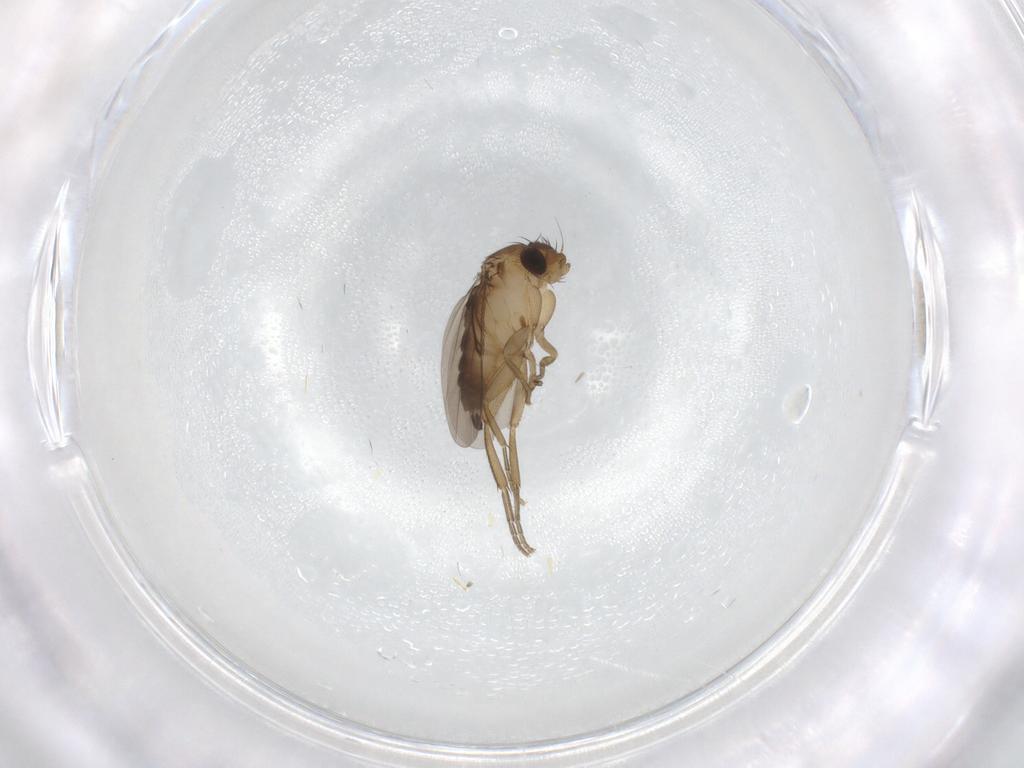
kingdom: Animalia
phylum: Arthropoda
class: Insecta
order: Diptera
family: Phoridae
